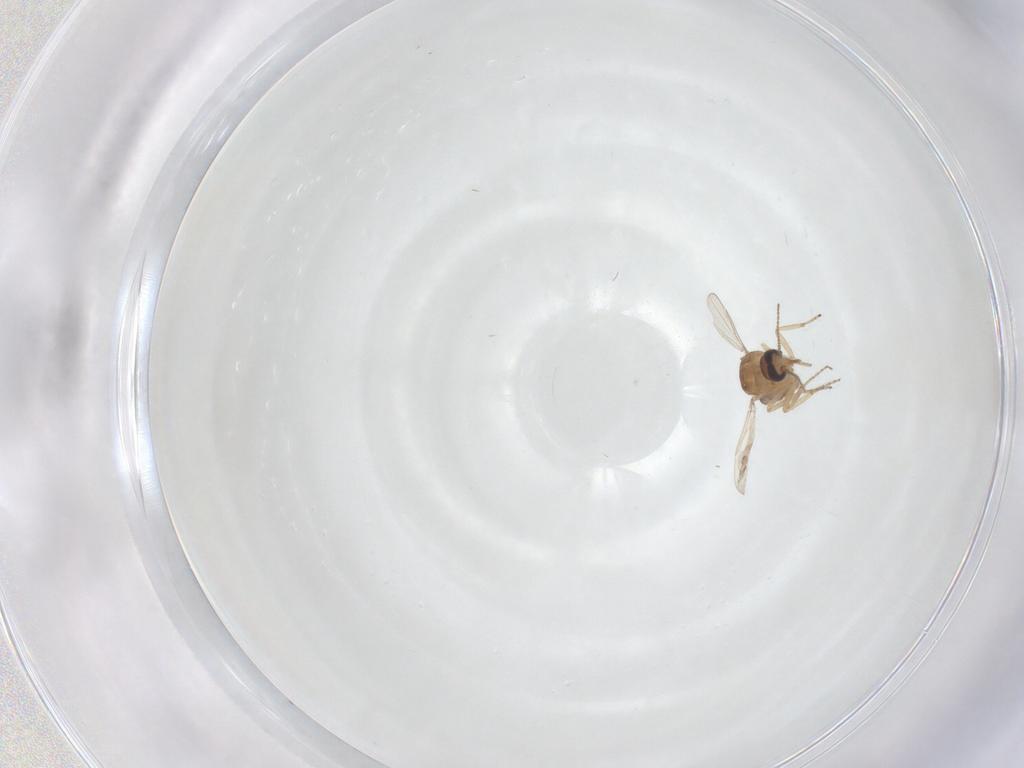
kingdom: Animalia
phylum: Arthropoda
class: Insecta
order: Diptera
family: Ceratopogonidae
